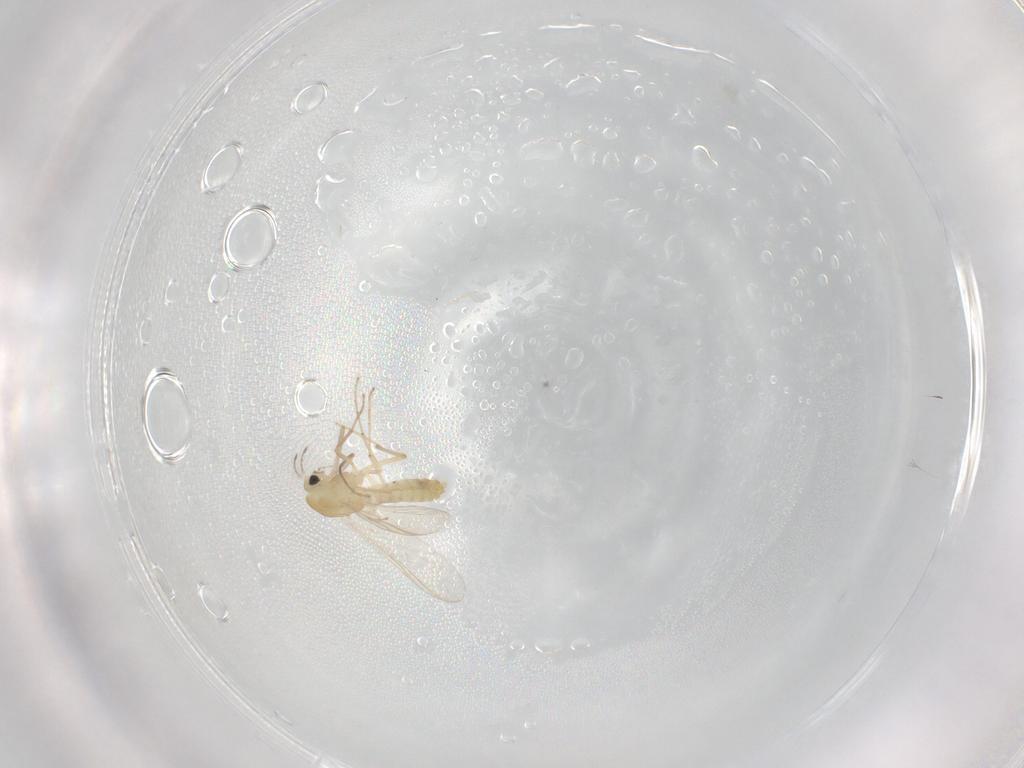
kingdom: Animalia
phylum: Arthropoda
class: Insecta
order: Diptera
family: Chironomidae
